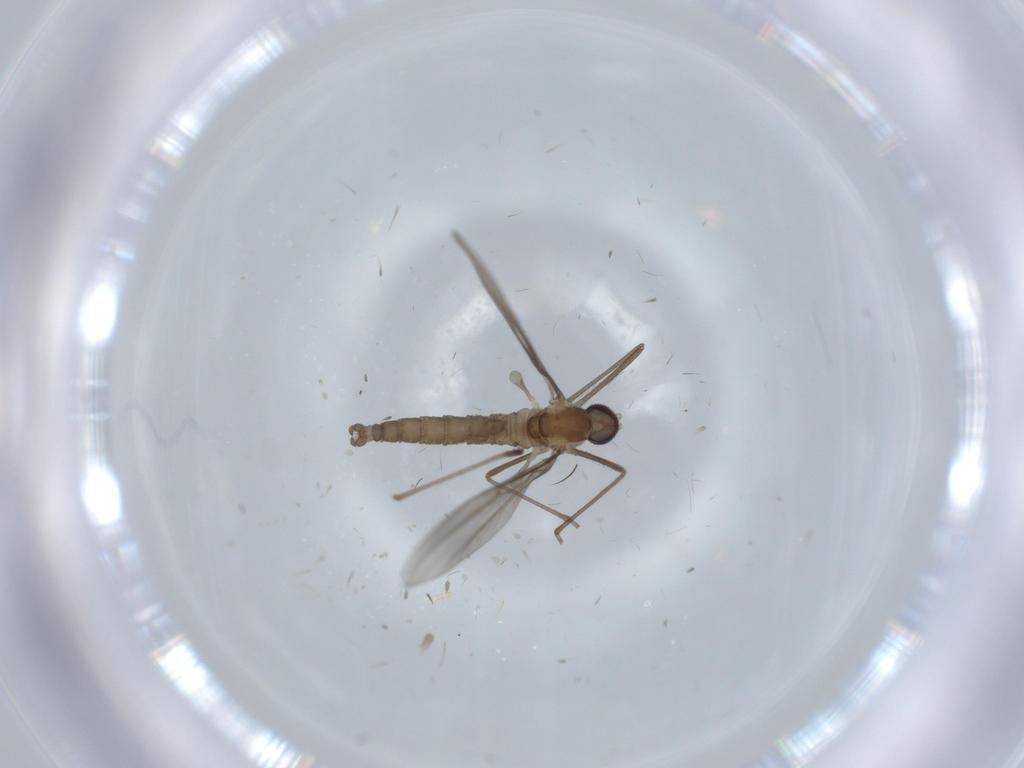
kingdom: Animalia
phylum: Arthropoda
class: Insecta
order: Diptera
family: Cecidomyiidae
